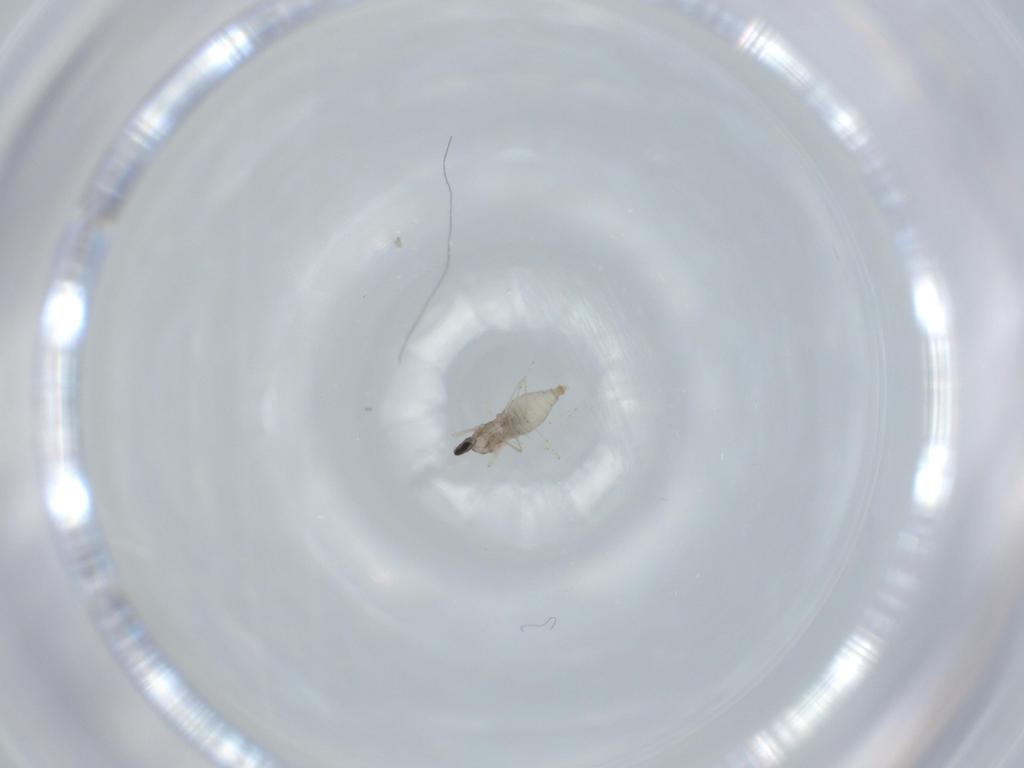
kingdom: Animalia
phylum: Arthropoda
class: Insecta
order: Diptera
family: Cecidomyiidae
